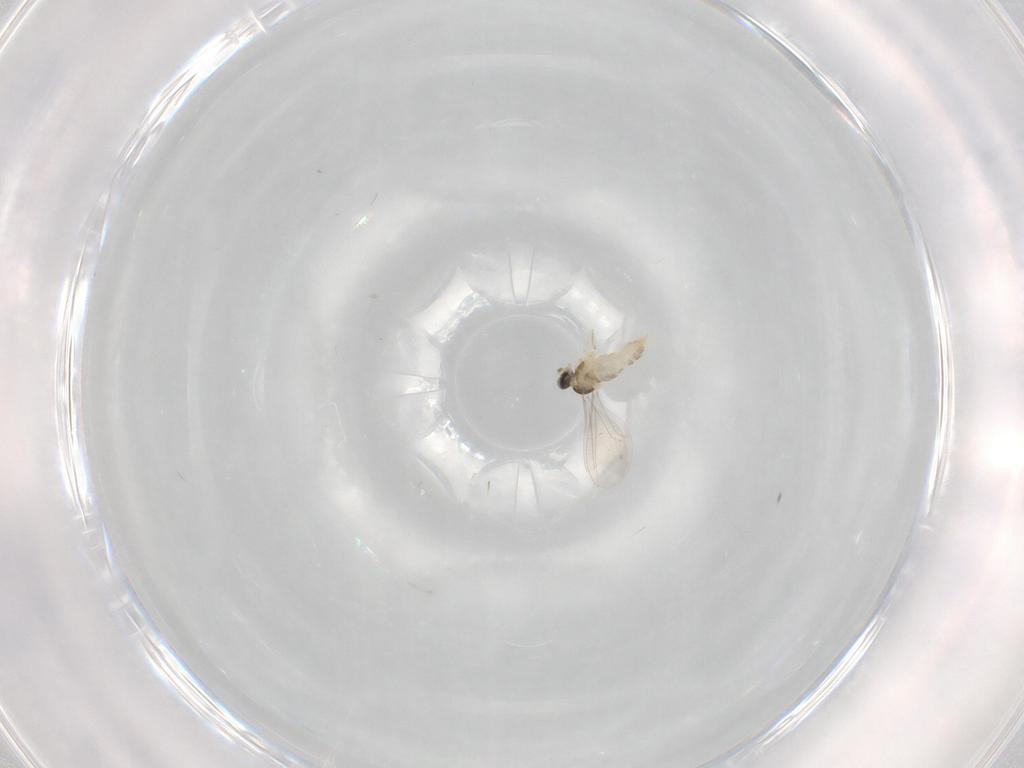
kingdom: Animalia
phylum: Arthropoda
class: Insecta
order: Diptera
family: Cecidomyiidae
